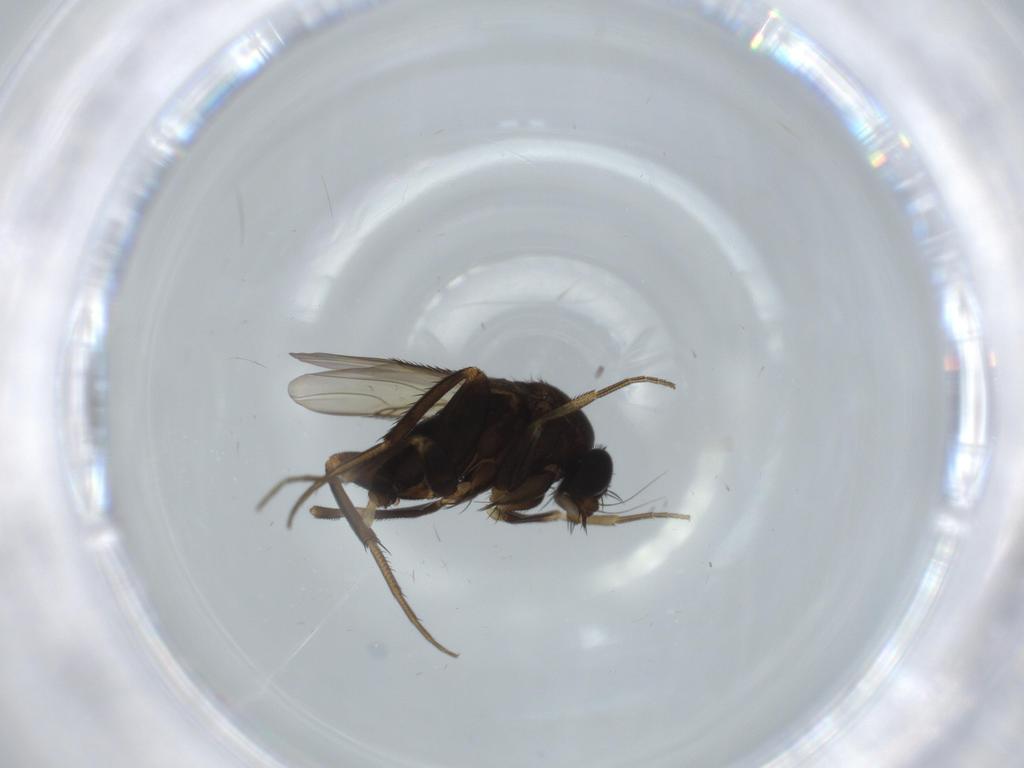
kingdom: Animalia
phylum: Arthropoda
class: Insecta
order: Diptera
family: Phoridae
